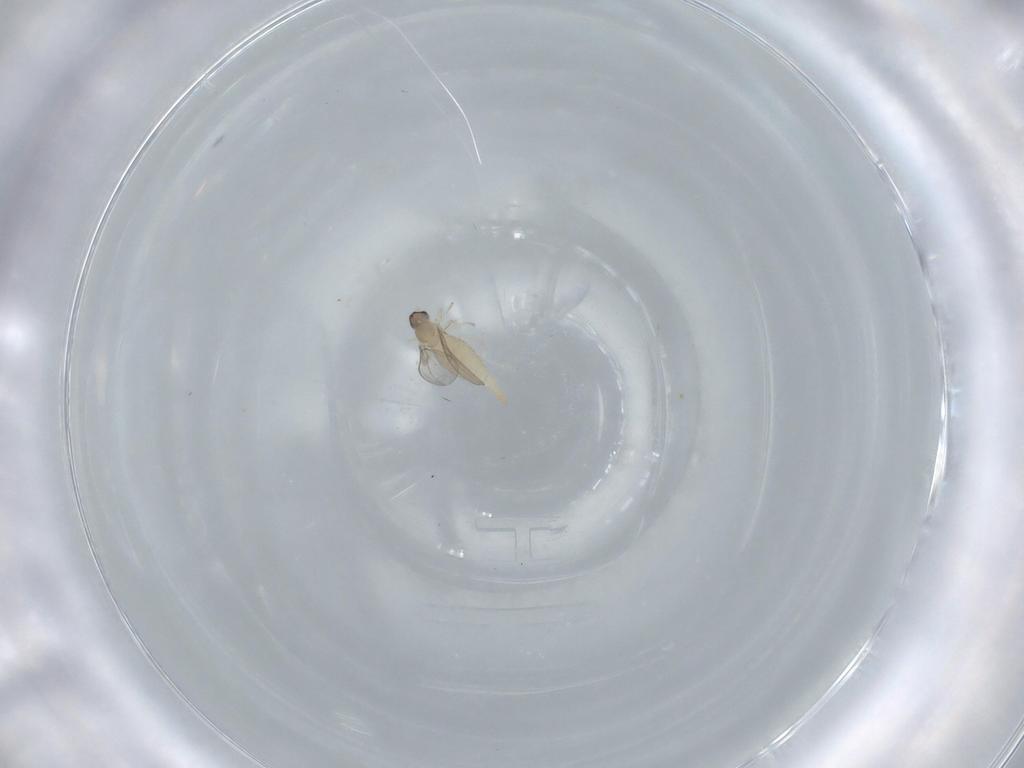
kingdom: Animalia
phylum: Arthropoda
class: Insecta
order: Diptera
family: Cecidomyiidae
